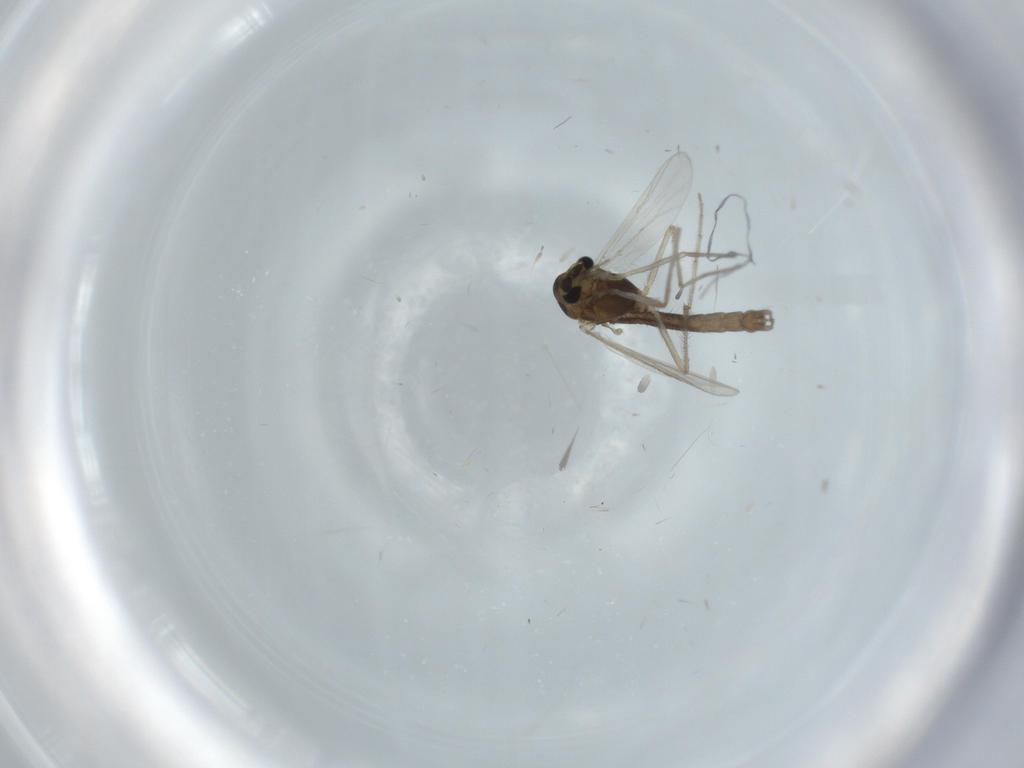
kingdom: Animalia
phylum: Arthropoda
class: Insecta
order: Diptera
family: Chironomidae
